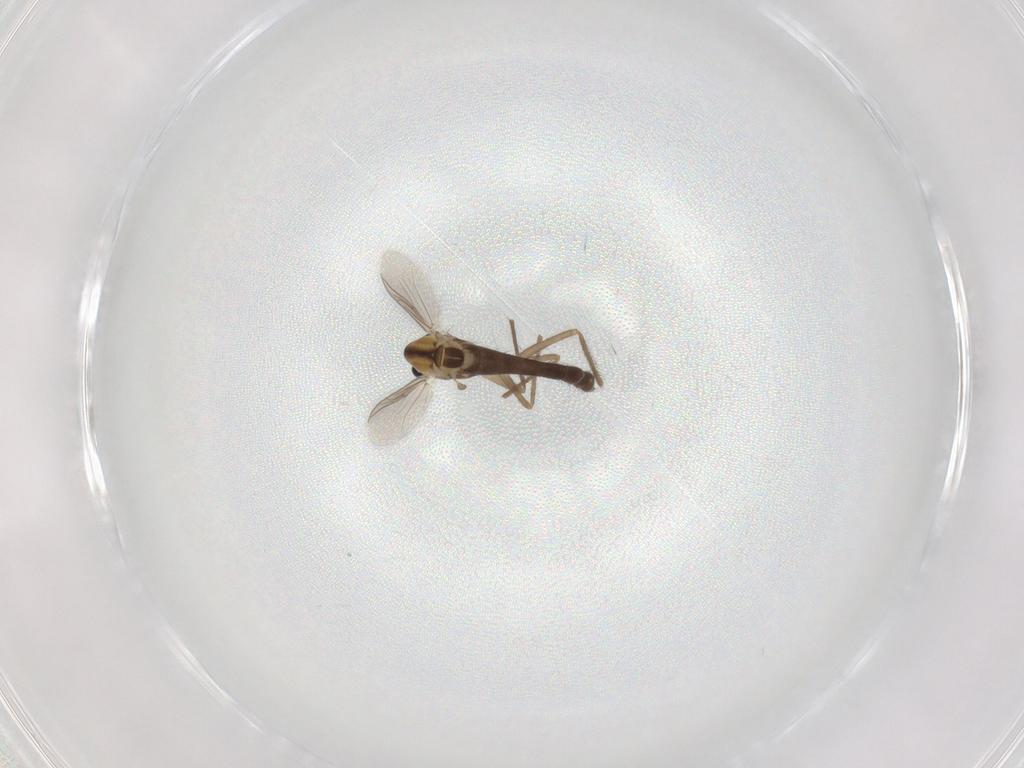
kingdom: Animalia
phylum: Arthropoda
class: Insecta
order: Diptera
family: Chironomidae
